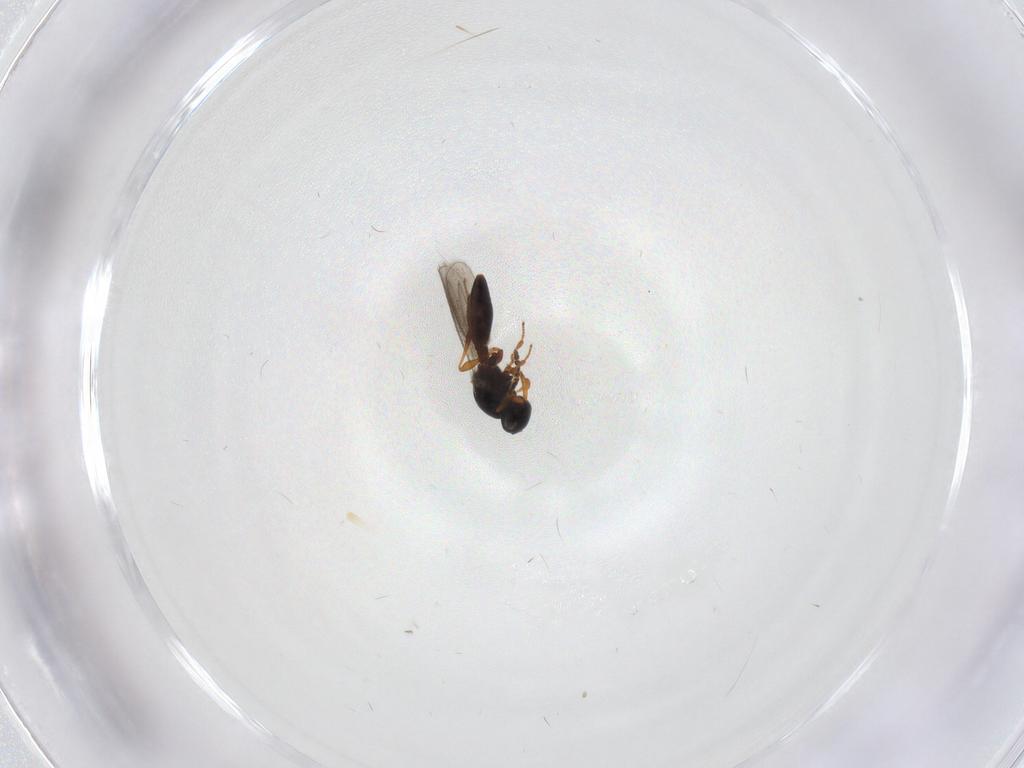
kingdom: Animalia
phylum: Arthropoda
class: Insecta
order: Hymenoptera
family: Platygastridae
